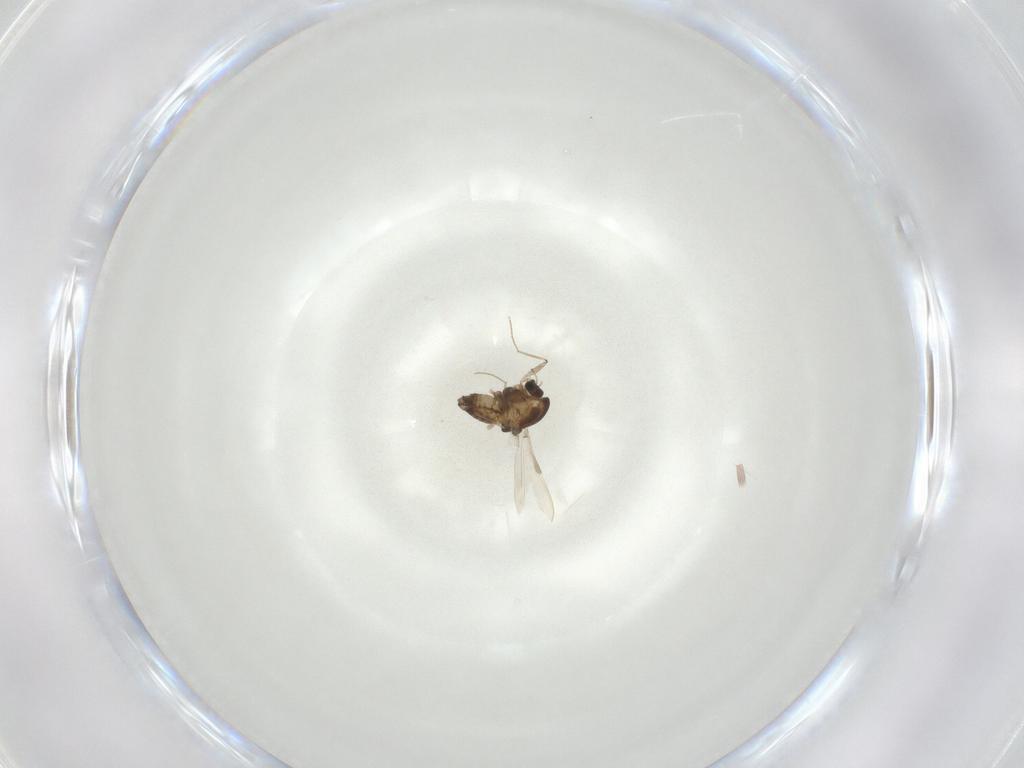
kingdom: Animalia
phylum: Arthropoda
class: Insecta
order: Diptera
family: Chironomidae
